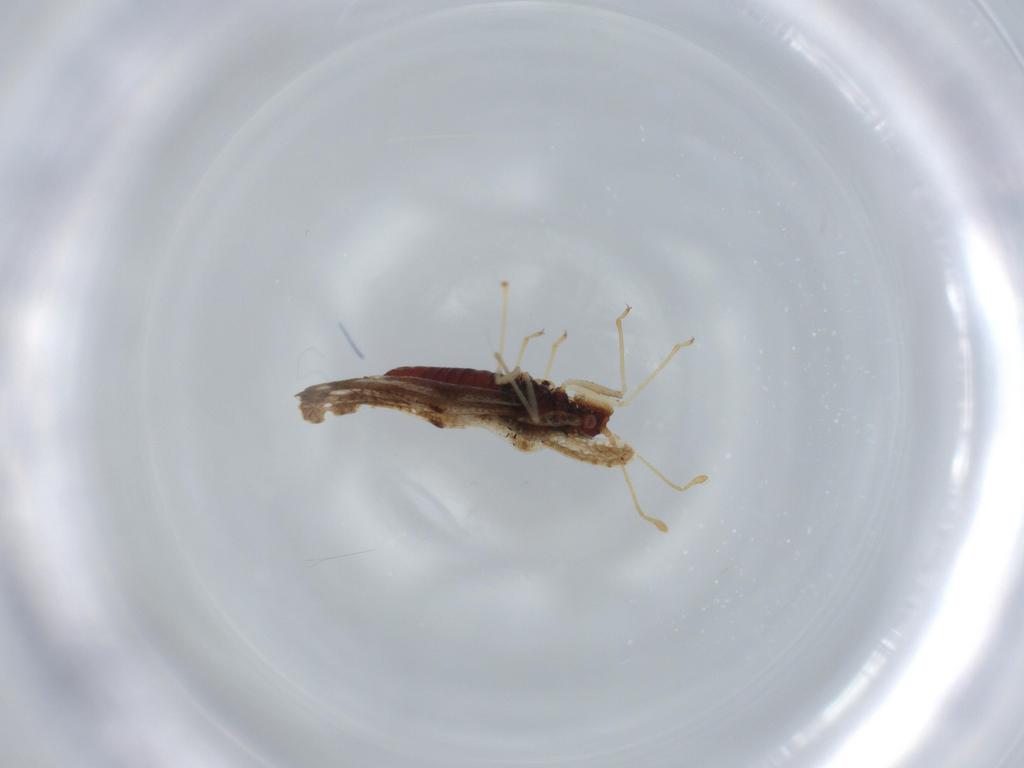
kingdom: Animalia
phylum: Arthropoda
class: Insecta
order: Hemiptera
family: Tingidae
